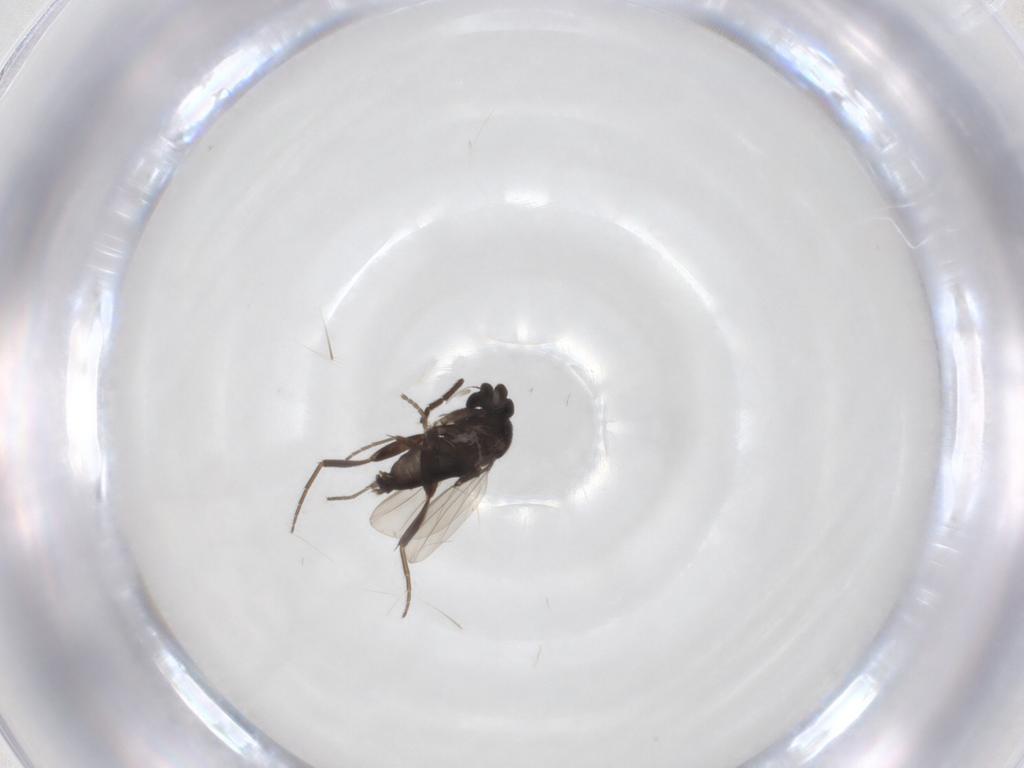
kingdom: Animalia
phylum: Arthropoda
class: Insecta
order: Diptera
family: Phoridae
